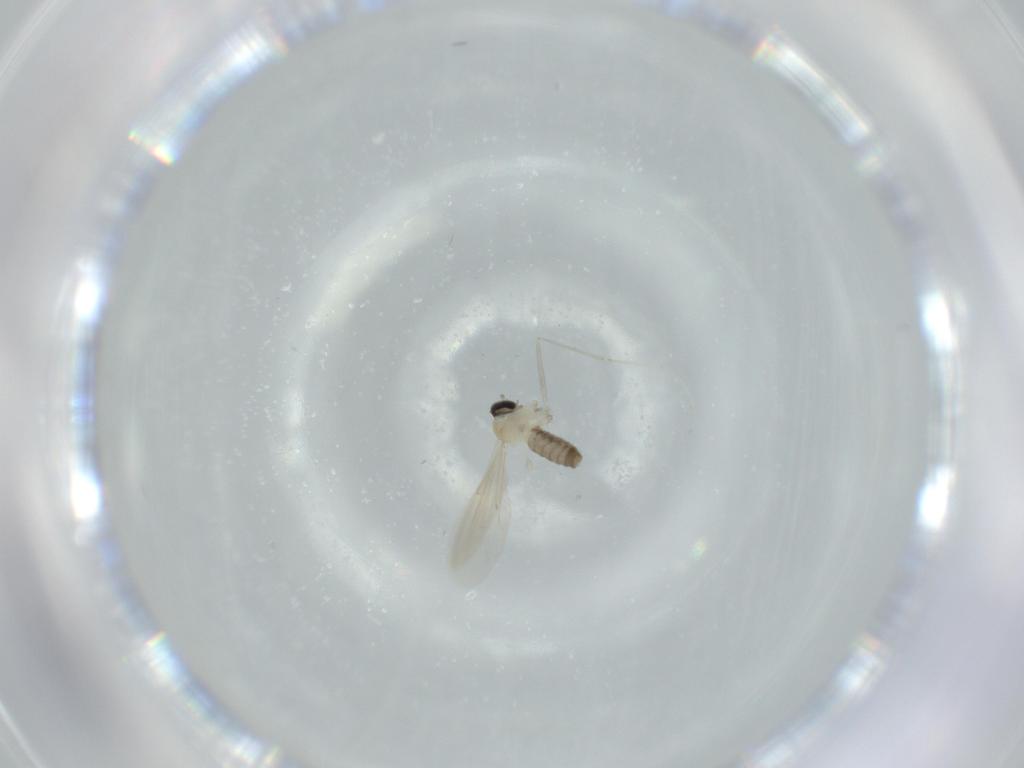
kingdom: Animalia
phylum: Arthropoda
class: Insecta
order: Diptera
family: Cecidomyiidae
